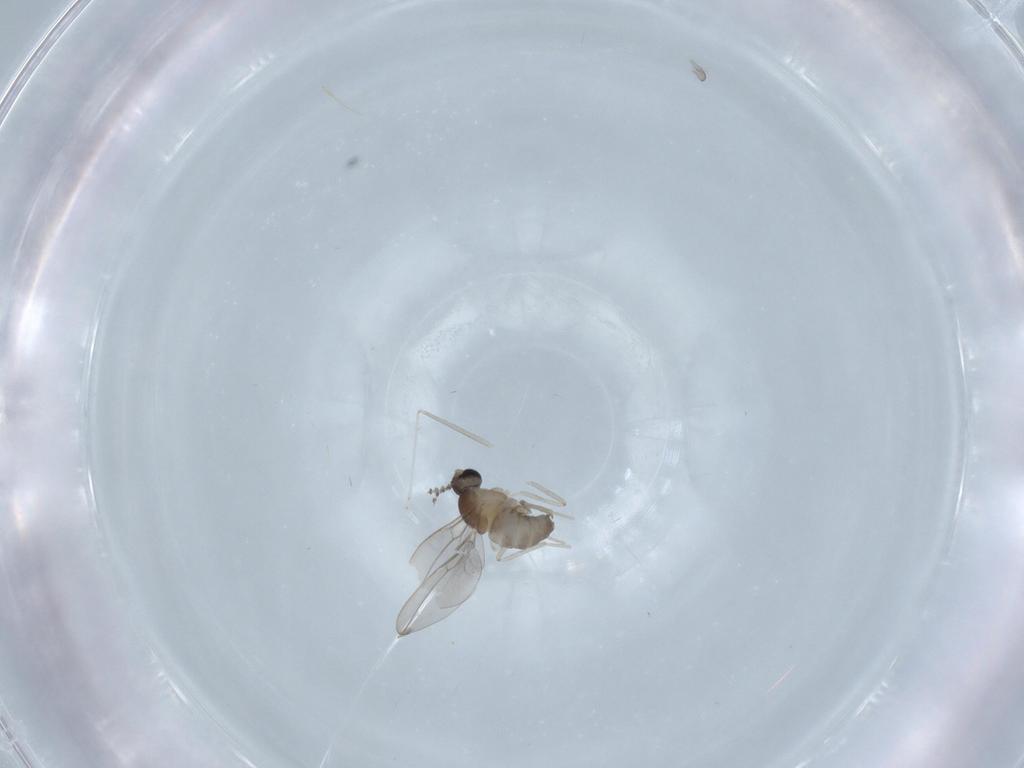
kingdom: Animalia
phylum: Arthropoda
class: Insecta
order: Diptera
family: Cecidomyiidae
